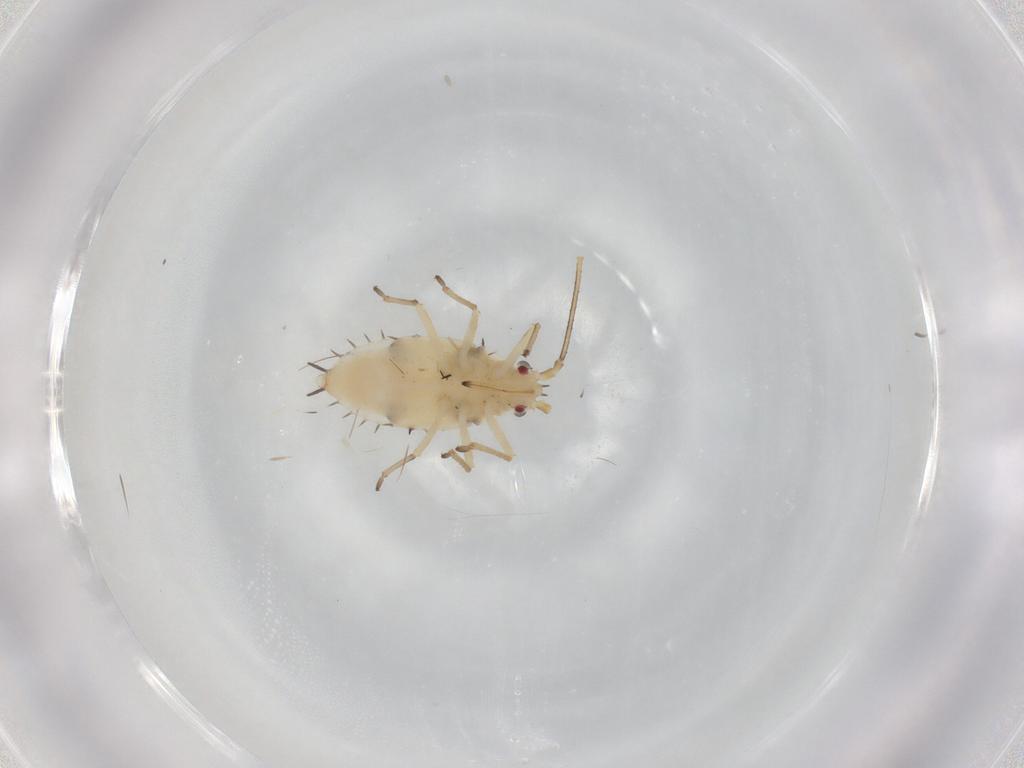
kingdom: Animalia
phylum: Arthropoda
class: Insecta
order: Hemiptera
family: Tingidae
